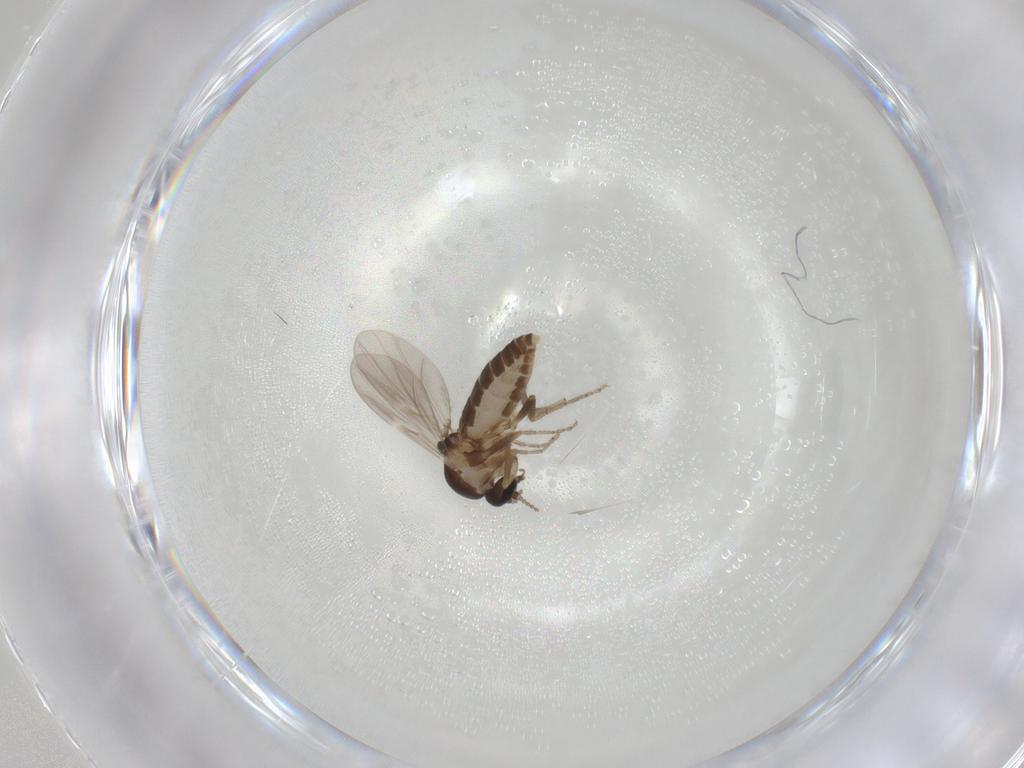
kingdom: Animalia
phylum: Arthropoda
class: Insecta
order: Diptera
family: Ceratopogonidae
